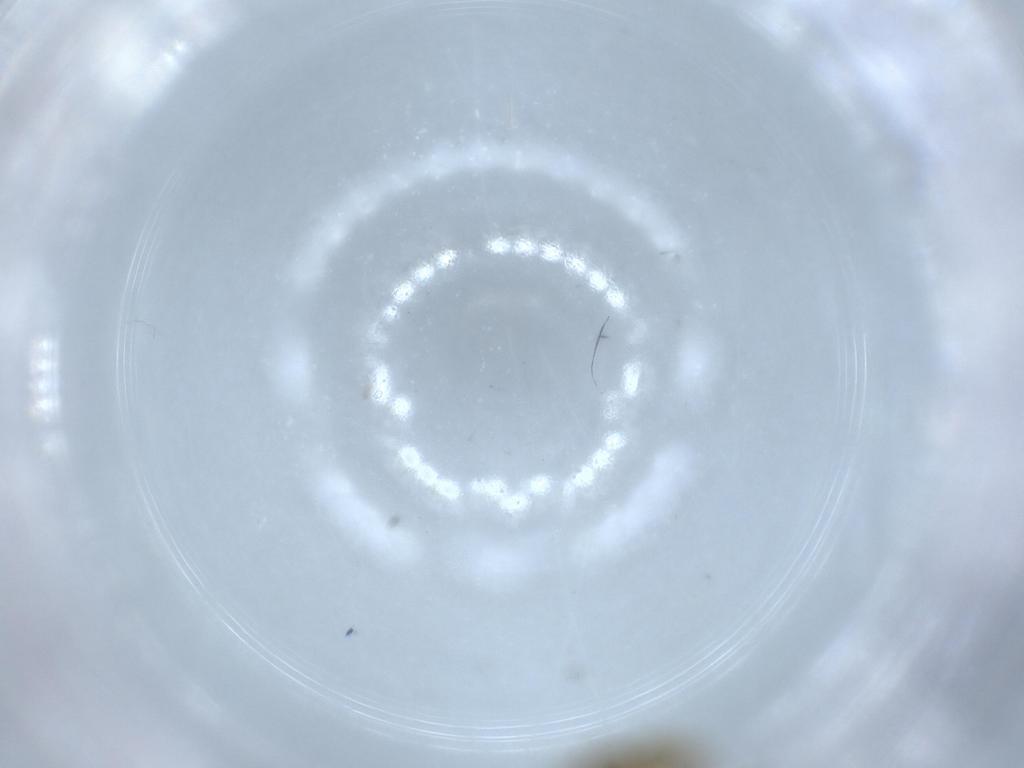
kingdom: Animalia
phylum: Arthropoda
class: Insecta
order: Diptera
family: Chironomidae
